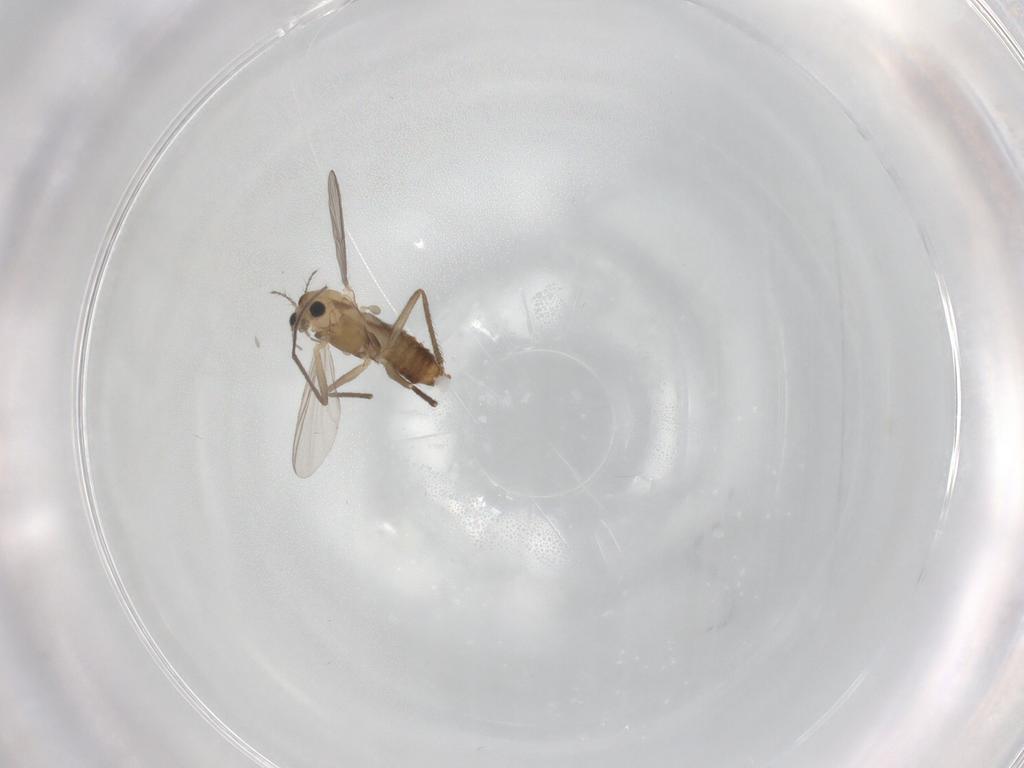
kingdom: Animalia
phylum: Arthropoda
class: Insecta
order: Diptera
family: Chironomidae
